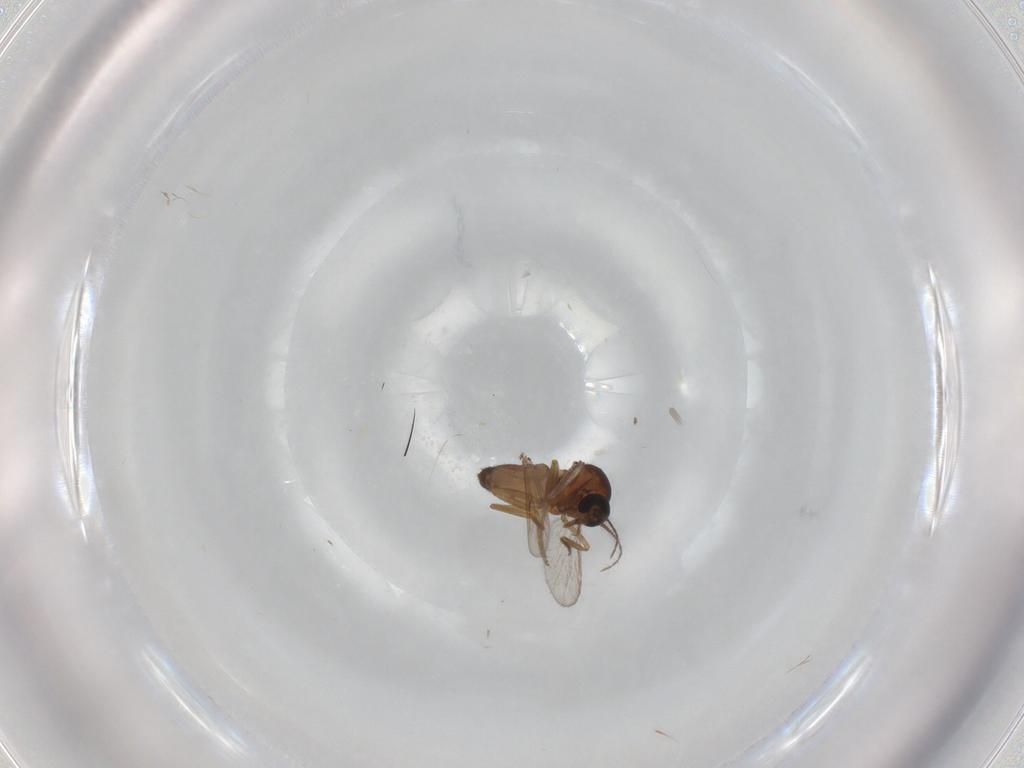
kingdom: Animalia
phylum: Arthropoda
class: Insecta
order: Diptera
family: Ceratopogonidae
